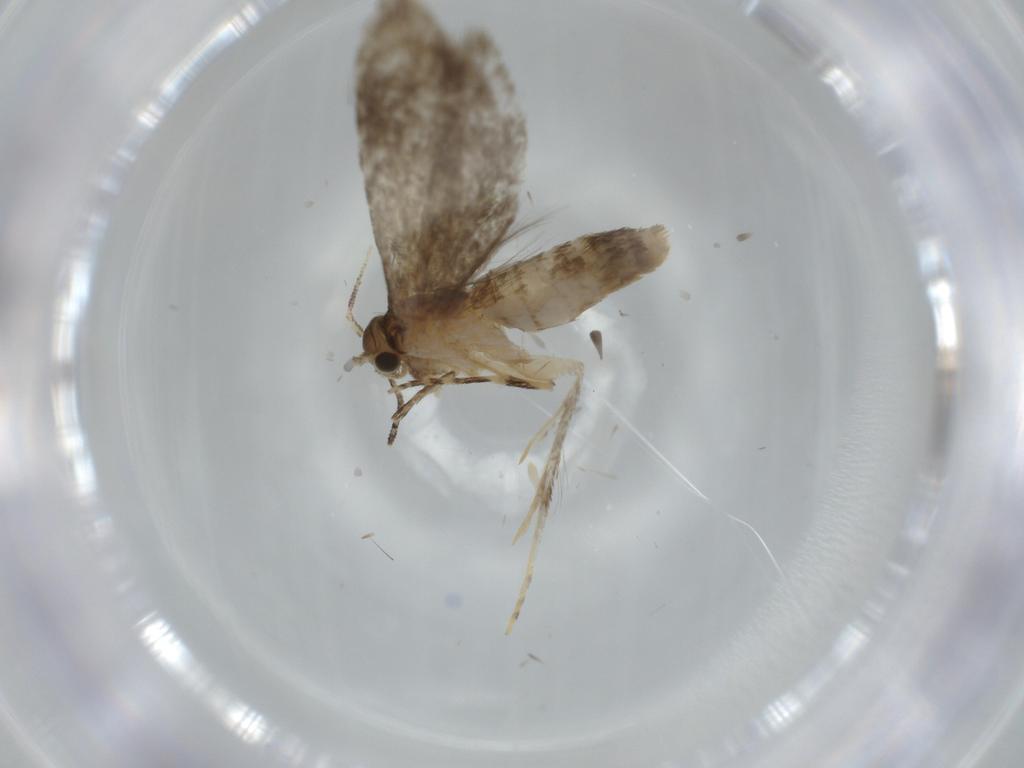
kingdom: Animalia
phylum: Arthropoda
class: Insecta
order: Lepidoptera
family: Tineidae
